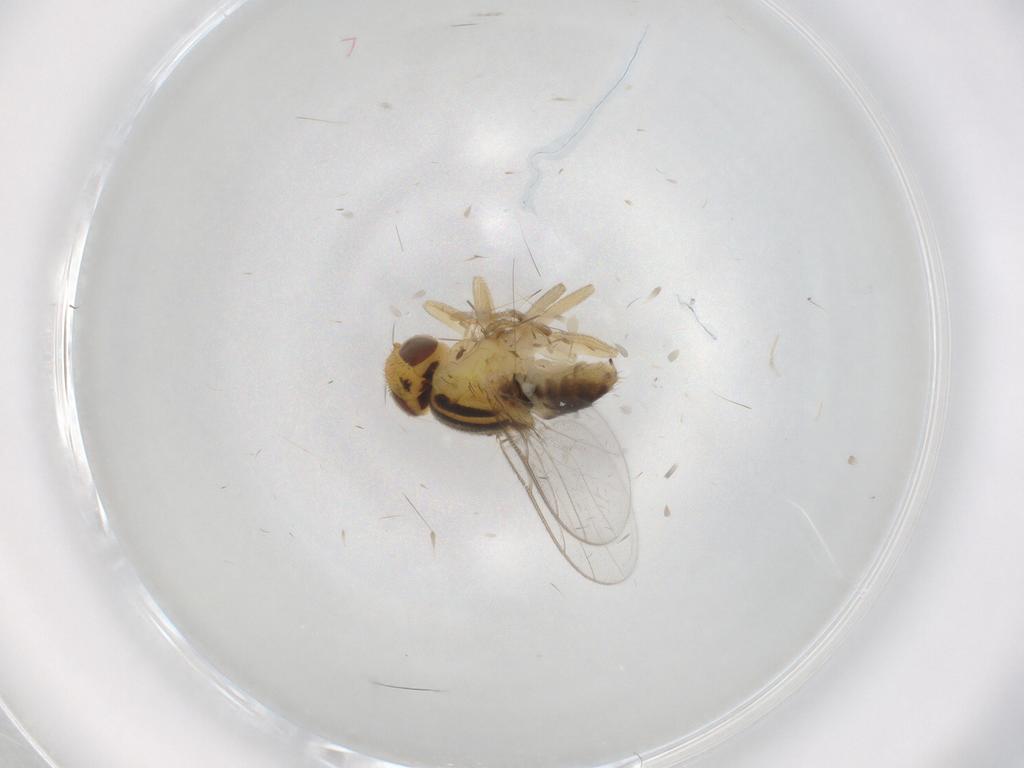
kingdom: Animalia
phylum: Arthropoda
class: Insecta
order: Diptera
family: Chloropidae
